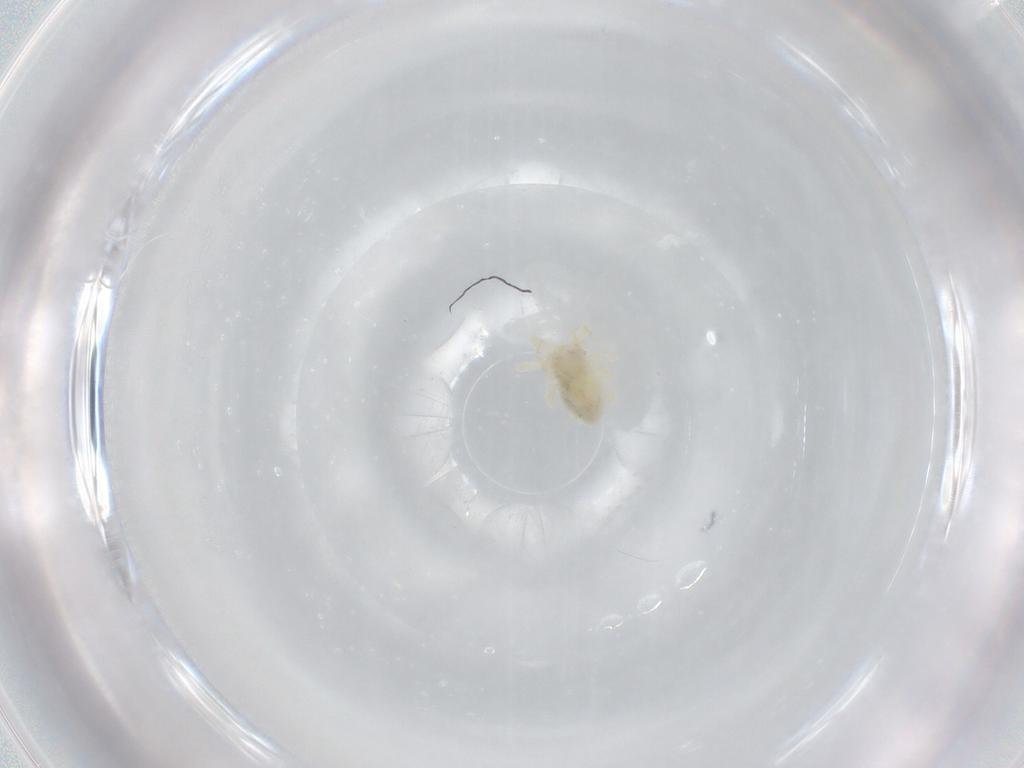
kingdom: Animalia
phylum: Arthropoda
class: Arachnida
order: Trombidiformes
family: Anystidae
